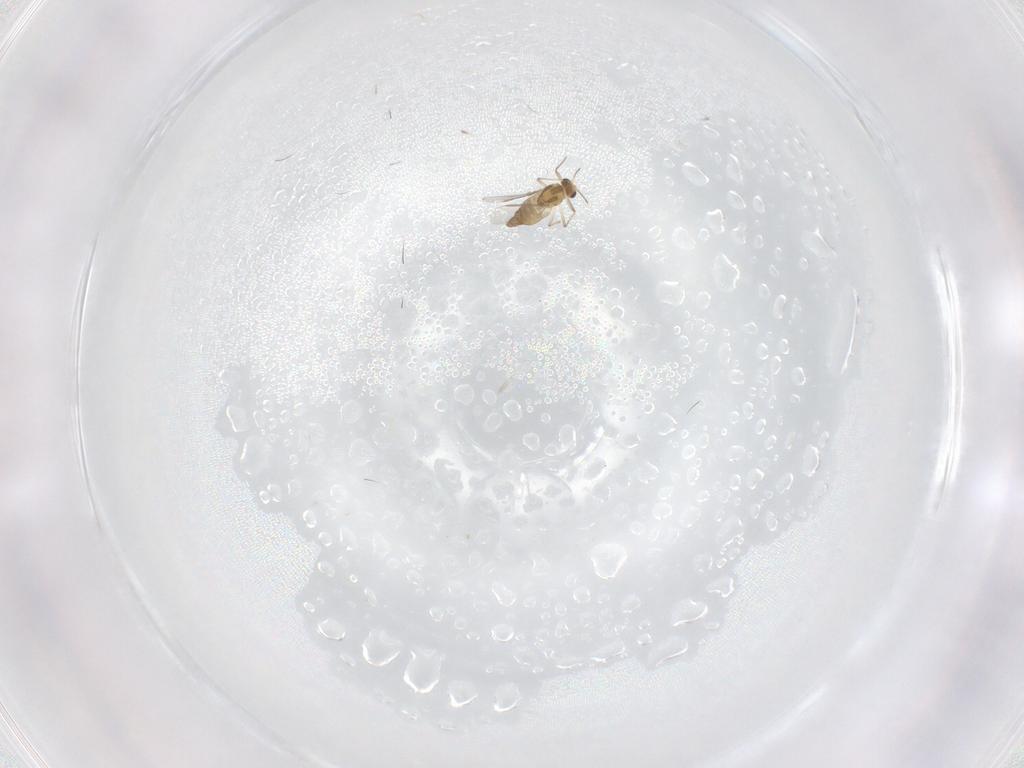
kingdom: Animalia
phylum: Arthropoda
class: Insecta
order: Diptera
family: Chironomidae
